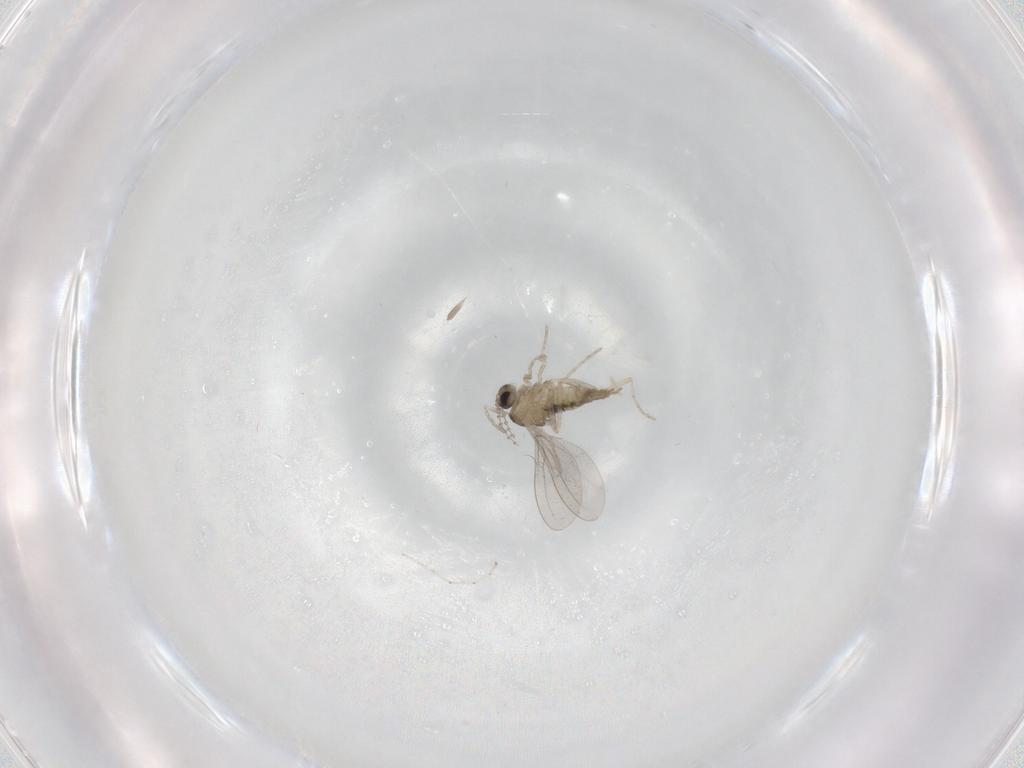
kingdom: Animalia
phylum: Arthropoda
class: Insecta
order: Diptera
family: Cecidomyiidae
